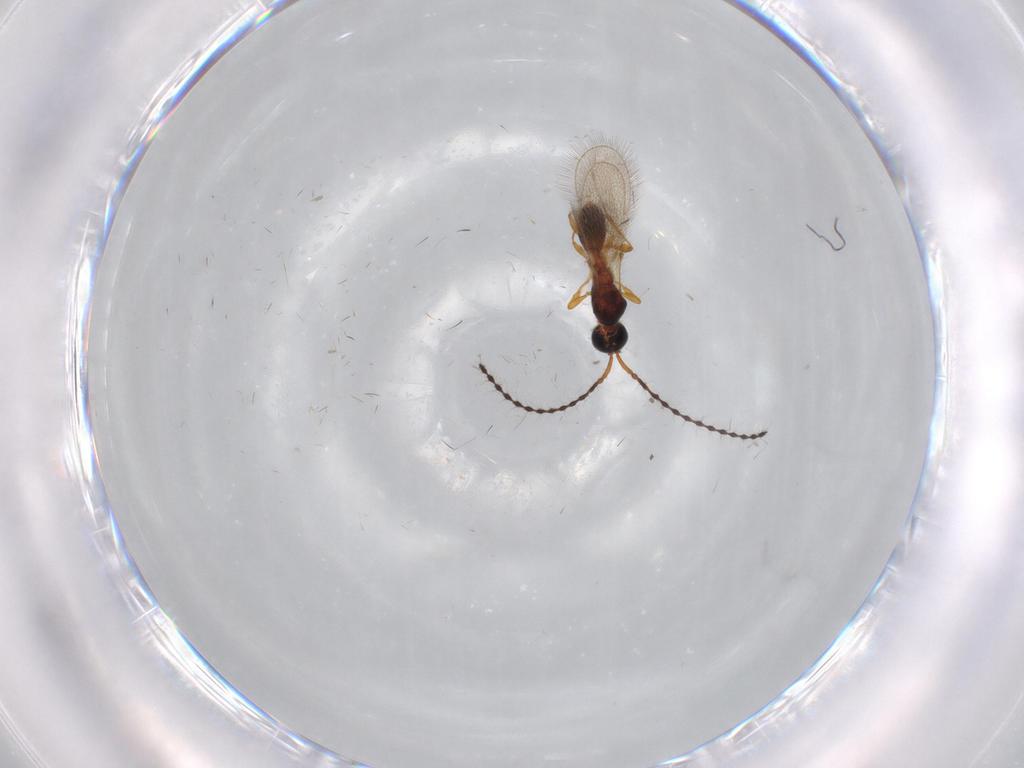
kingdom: Animalia
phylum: Arthropoda
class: Insecta
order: Hymenoptera
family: Diapriidae
